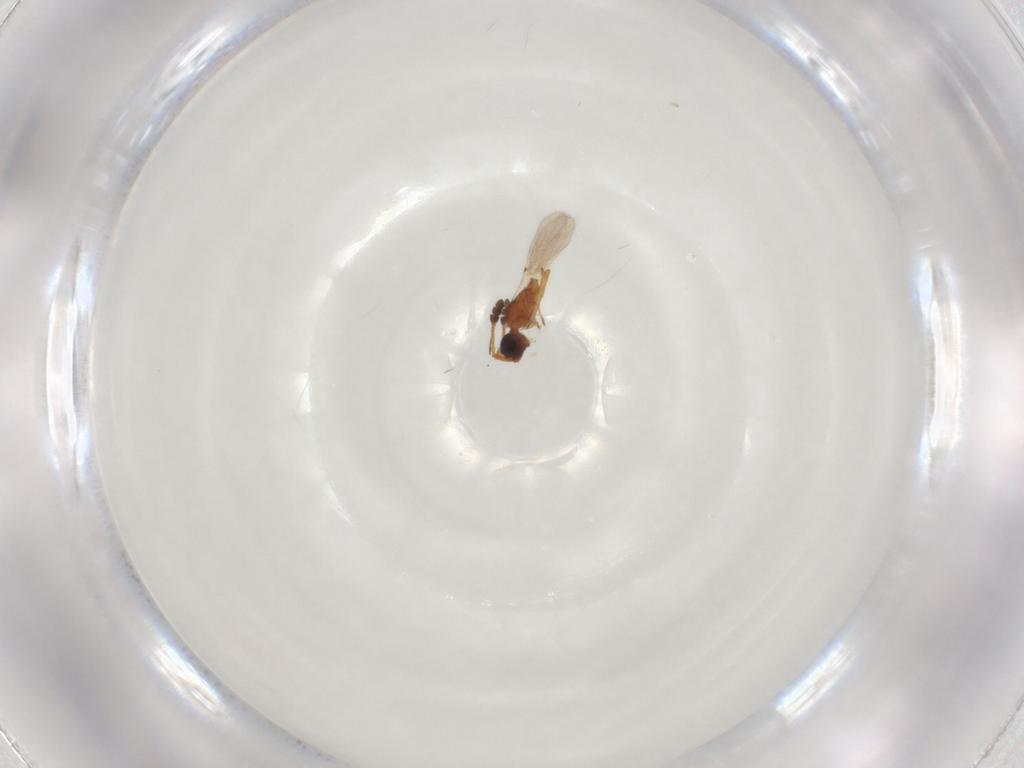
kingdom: Animalia
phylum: Arthropoda
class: Insecta
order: Hymenoptera
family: Diapriidae
